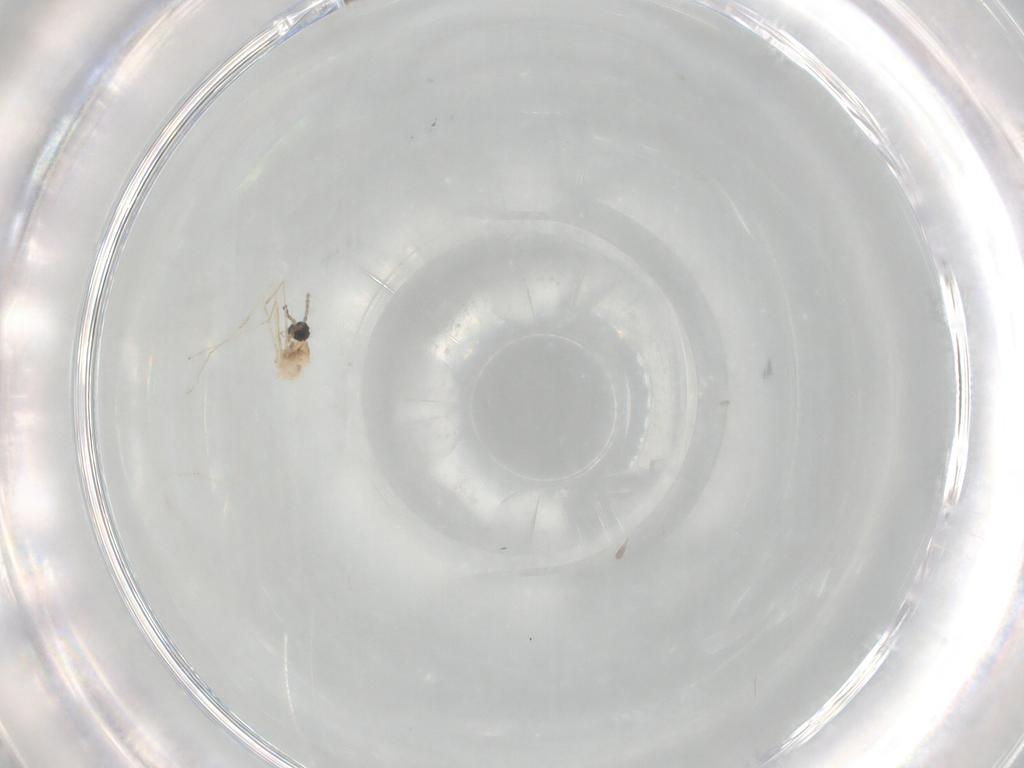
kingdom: Animalia
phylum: Arthropoda
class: Insecta
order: Diptera
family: Cecidomyiidae
